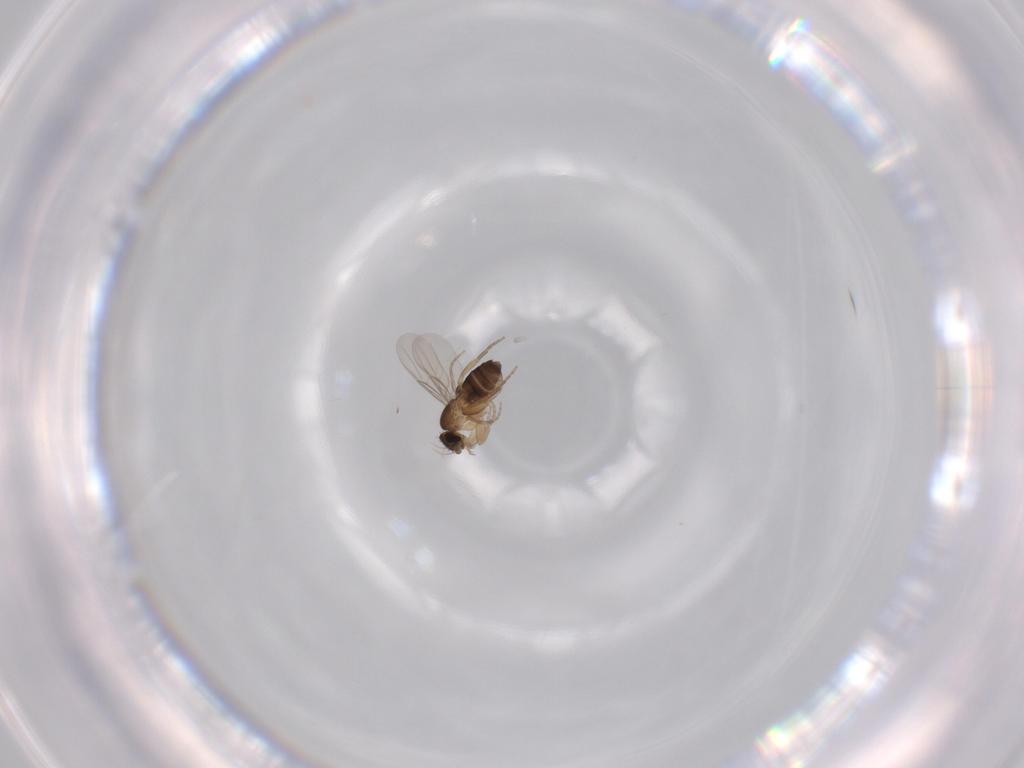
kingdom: Animalia
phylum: Arthropoda
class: Insecta
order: Diptera
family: Phoridae
